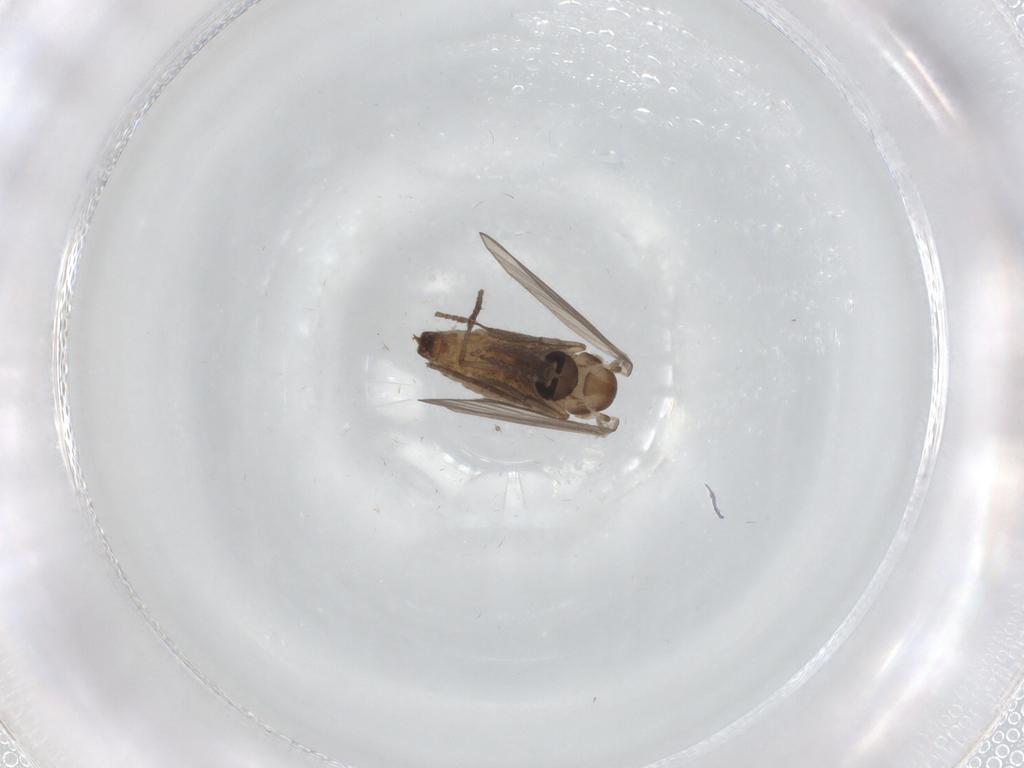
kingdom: Animalia
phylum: Arthropoda
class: Insecta
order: Diptera
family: Psychodidae
